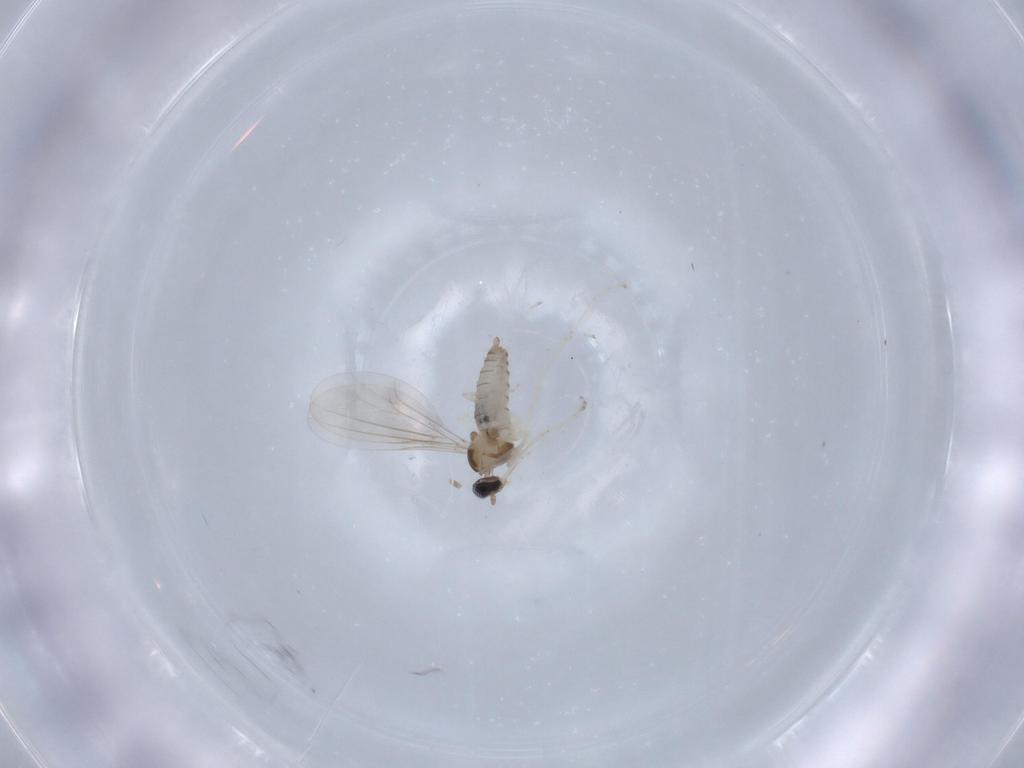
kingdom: Animalia
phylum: Arthropoda
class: Insecta
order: Diptera
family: Cecidomyiidae
